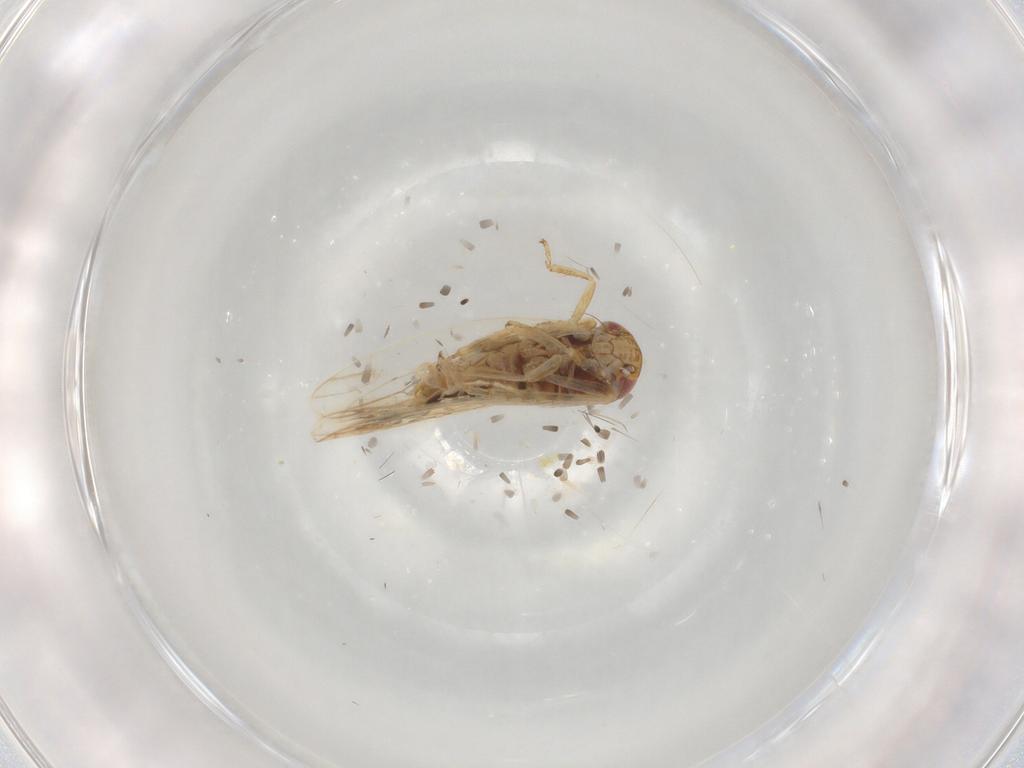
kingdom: Animalia
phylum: Arthropoda
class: Insecta
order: Hemiptera
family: Cicadellidae
